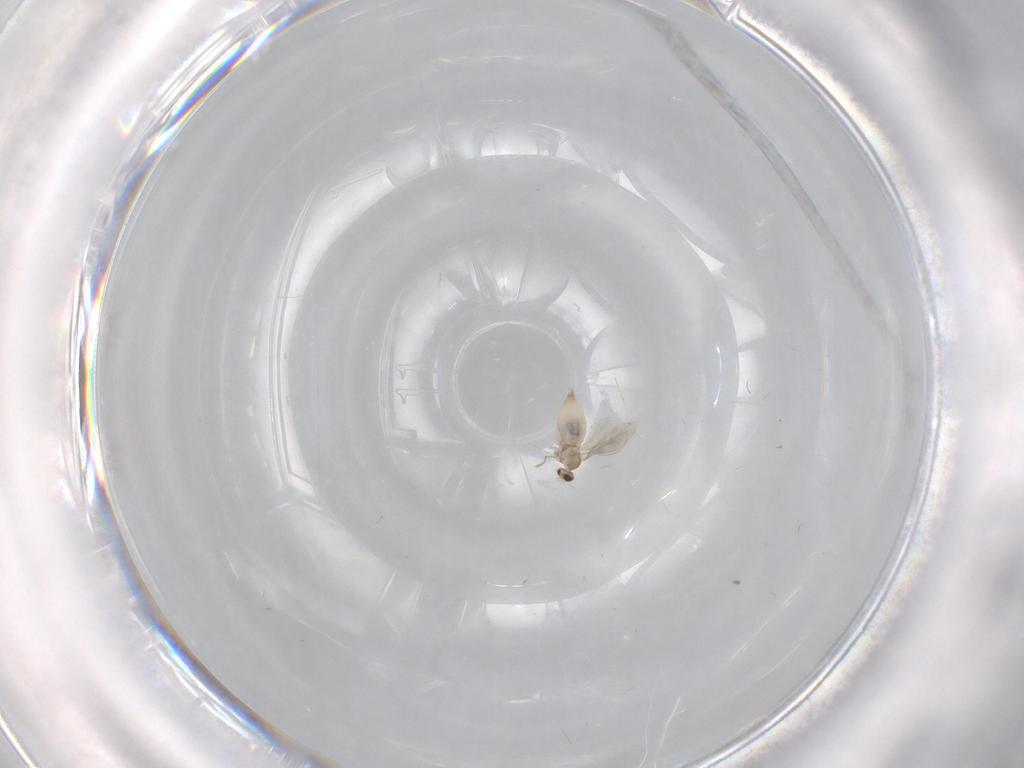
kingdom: Animalia
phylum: Arthropoda
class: Insecta
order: Diptera
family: Cecidomyiidae
